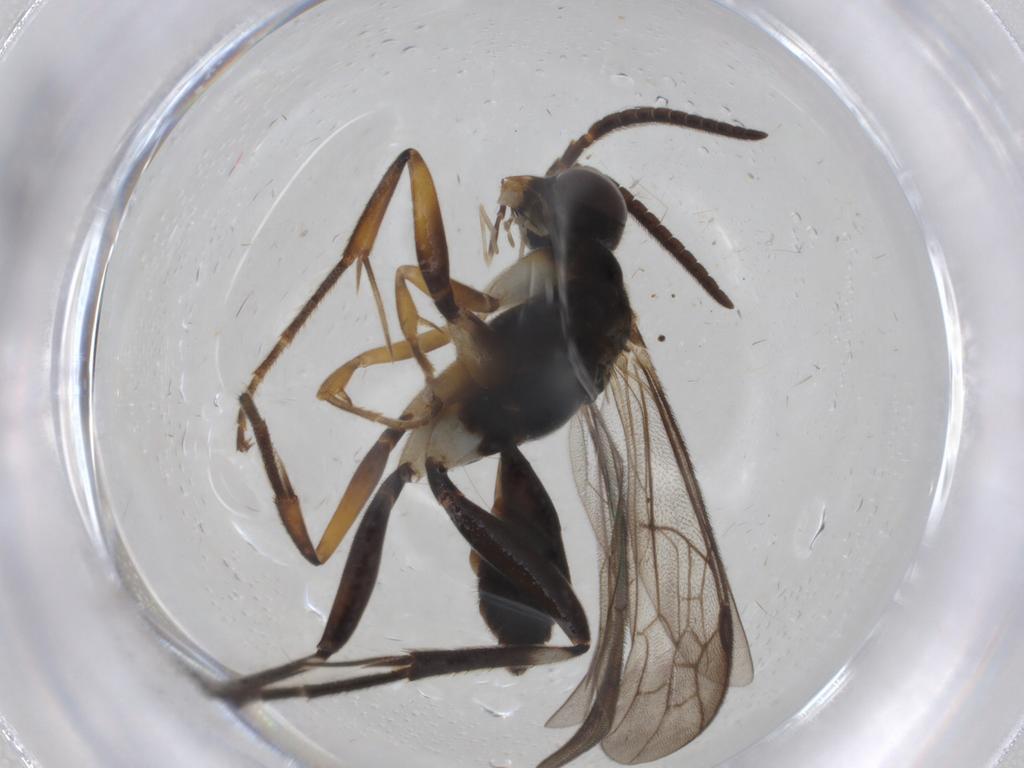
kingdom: Animalia
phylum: Arthropoda
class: Insecta
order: Hymenoptera
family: Pompilidae
